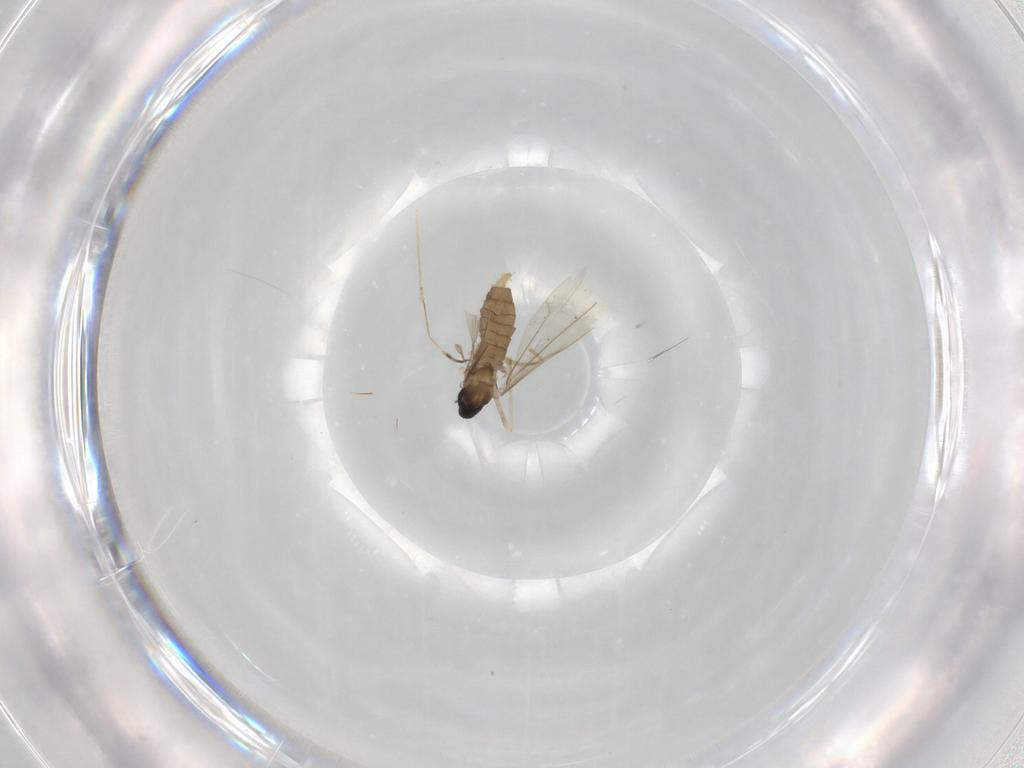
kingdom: Animalia
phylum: Arthropoda
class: Insecta
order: Diptera
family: Cecidomyiidae
